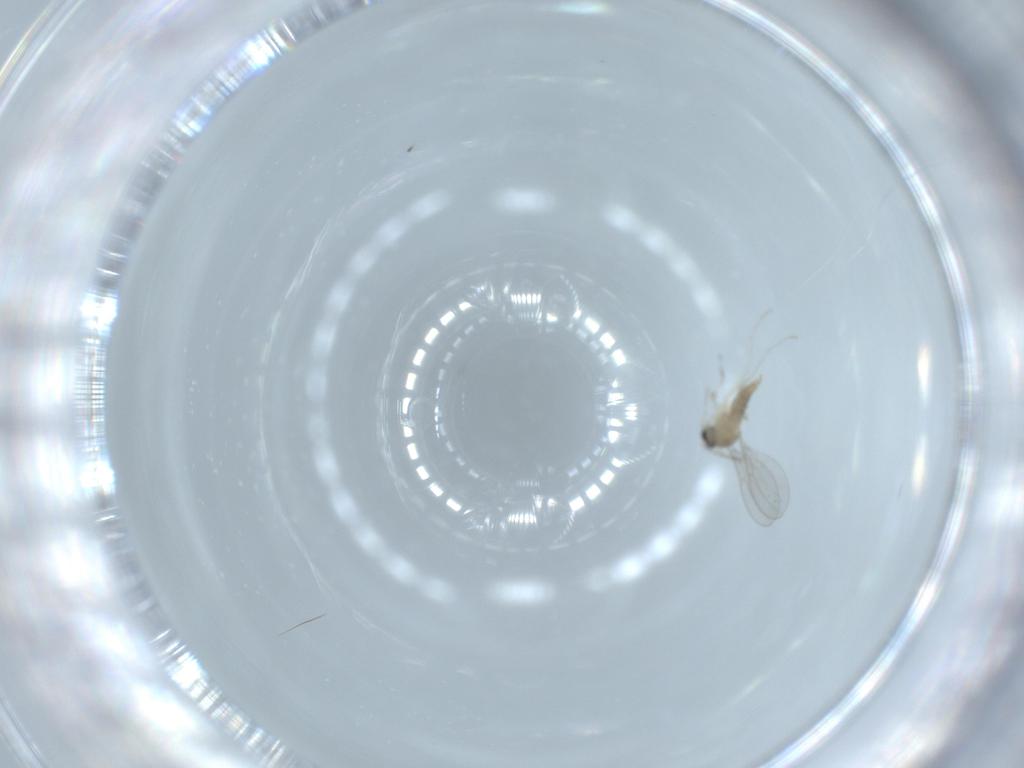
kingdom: Animalia
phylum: Arthropoda
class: Insecta
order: Diptera
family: Cecidomyiidae
